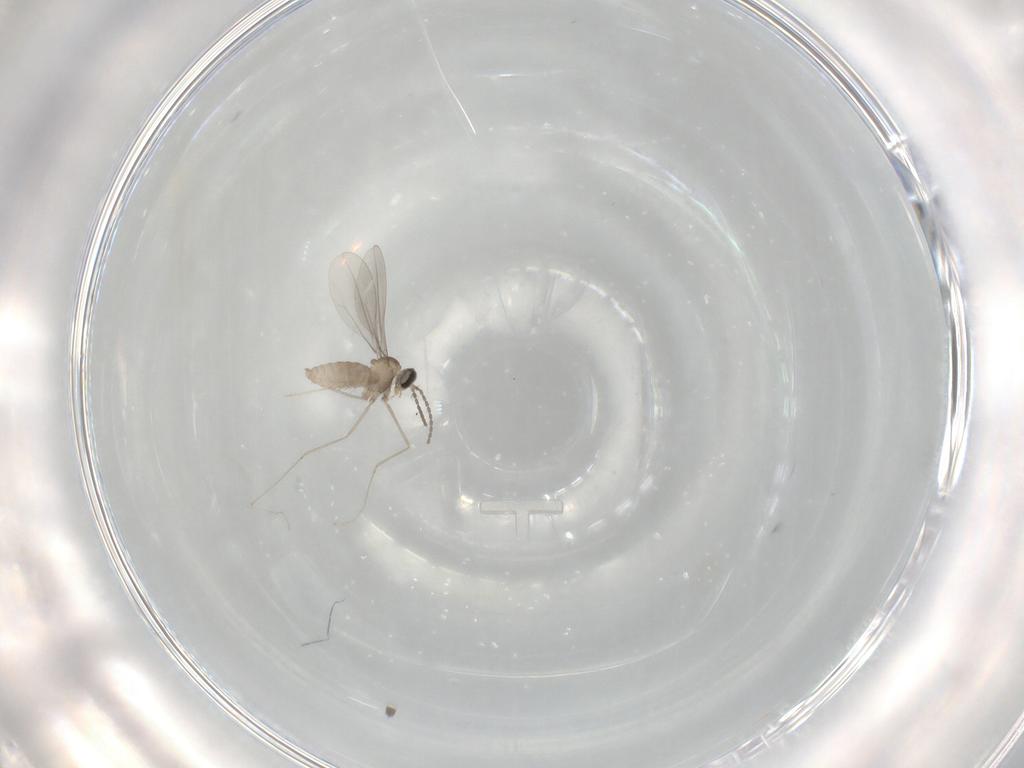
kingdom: Animalia
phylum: Arthropoda
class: Insecta
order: Diptera
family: Cecidomyiidae
